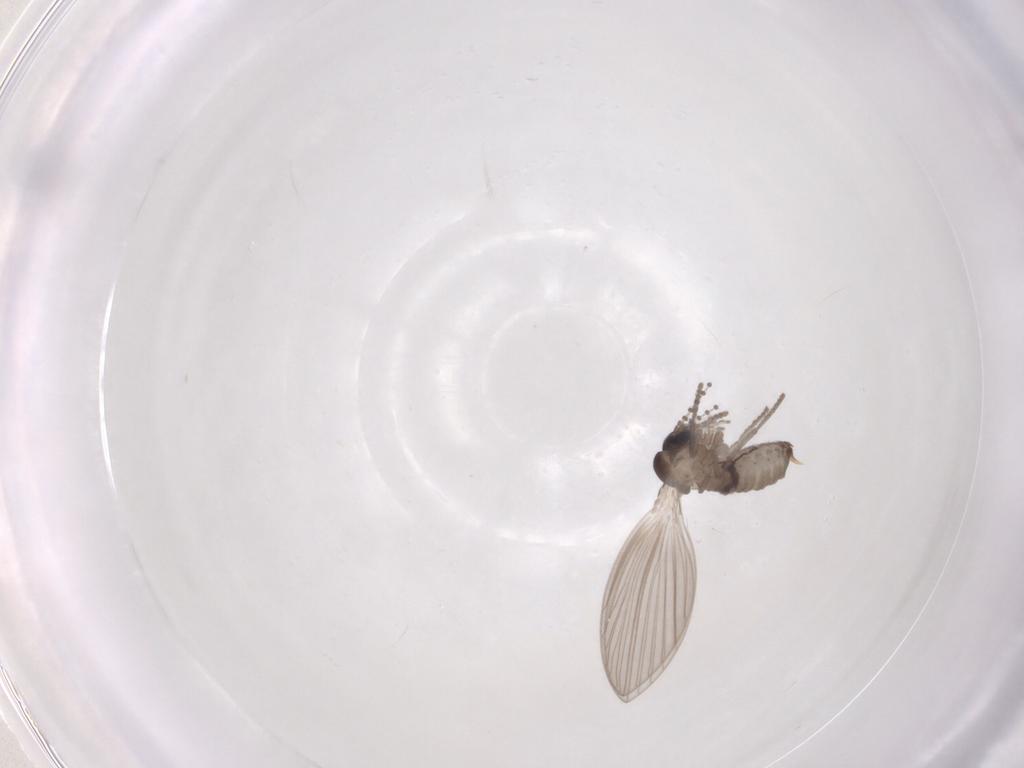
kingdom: Animalia
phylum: Arthropoda
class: Insecta
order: Diptera
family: Psychodidae
